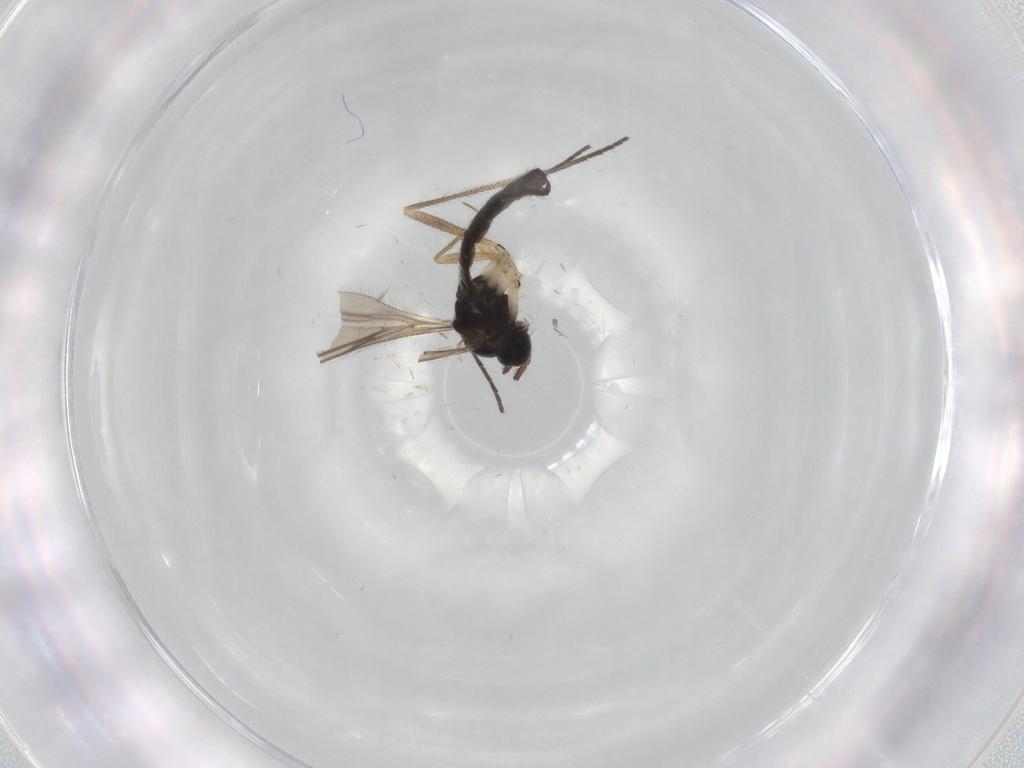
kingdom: Animalia
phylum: Arthropoda
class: Insecta
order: Diptera
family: Sciaridae
